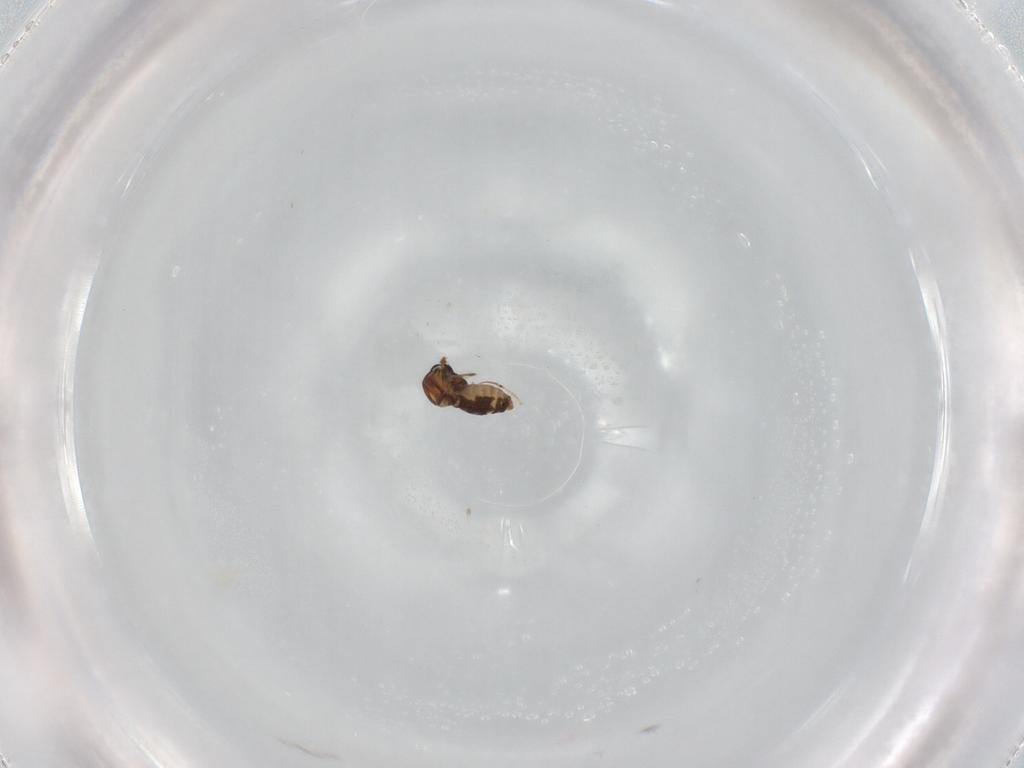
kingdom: Animalia
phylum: Arthropoda
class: Insecta
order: Diptera
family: Ceratopogonidae
